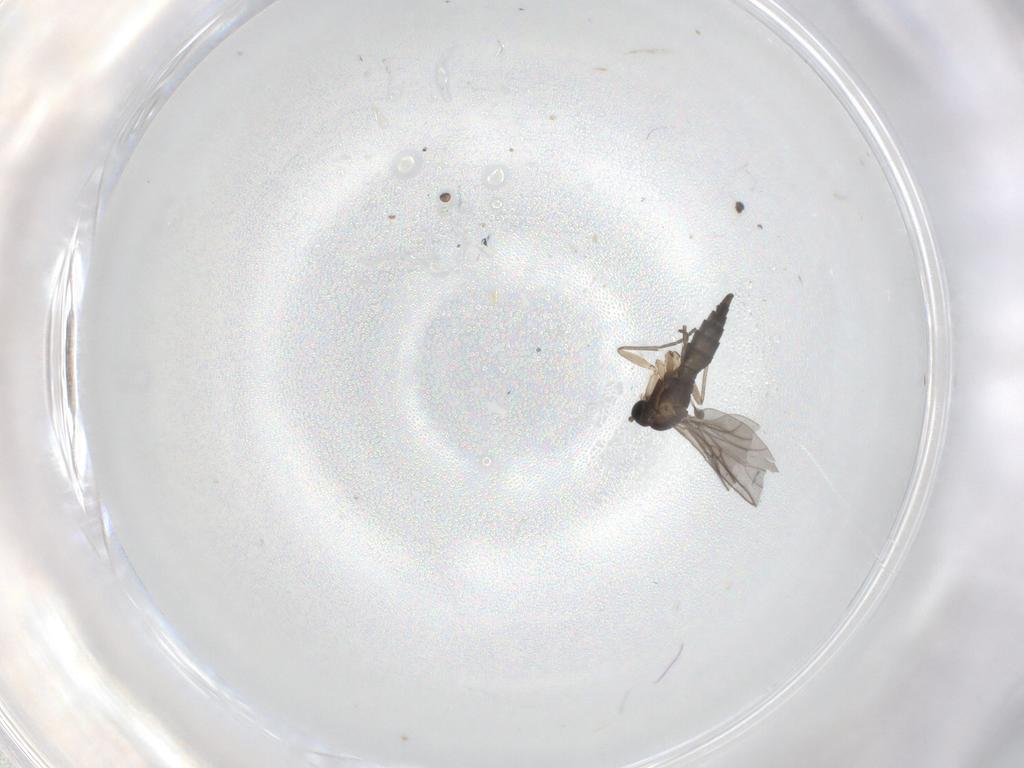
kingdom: Animalia
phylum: Arthropoda
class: Insecta
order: Diptera
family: Sciaridae
